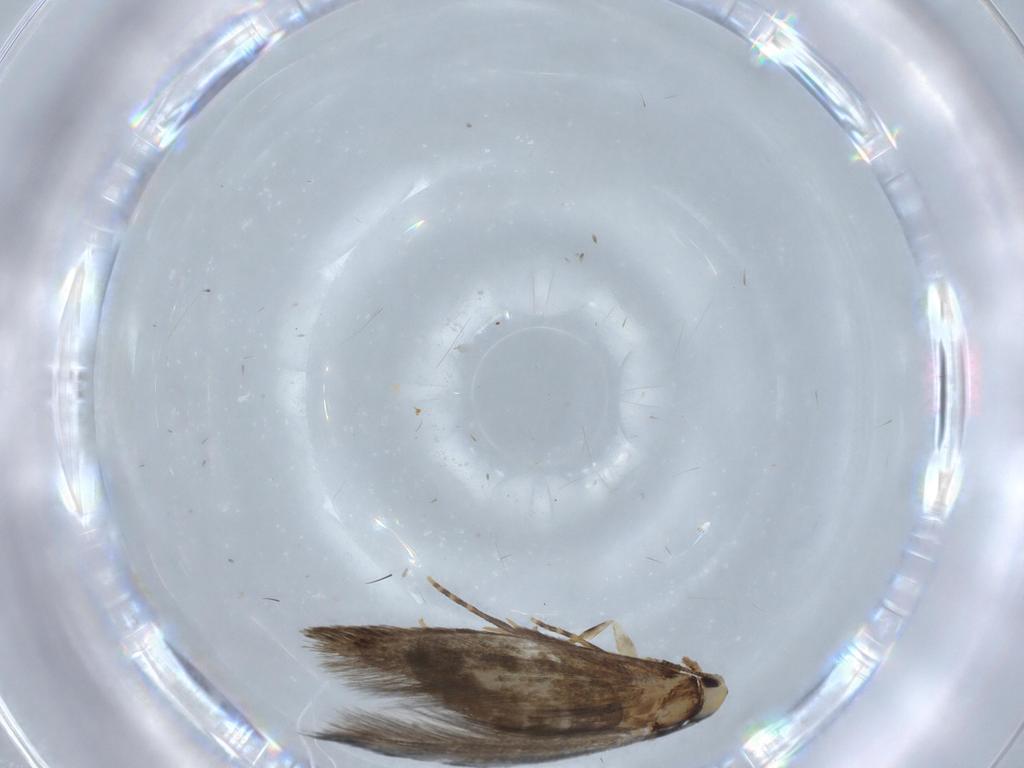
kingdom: Animalia
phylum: Arthropoda
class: Insecta
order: Lepidoptera
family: Tineidae
